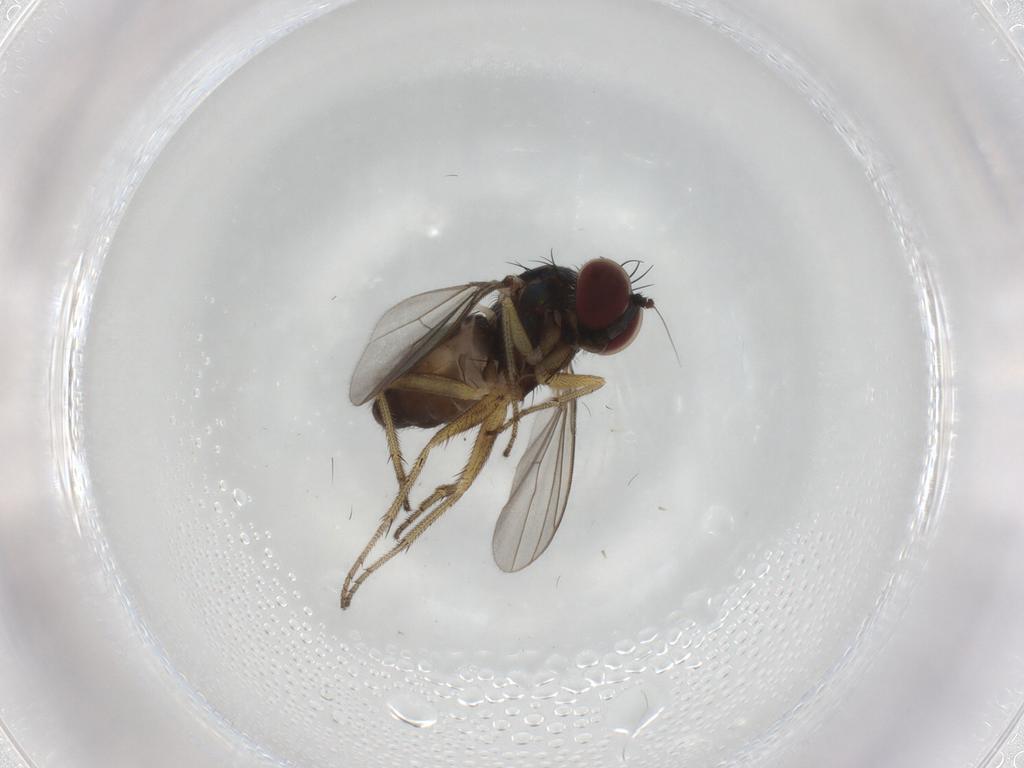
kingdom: Animalia
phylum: Arthropoda
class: Insecta
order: Diptera
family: Dolichopodidae
